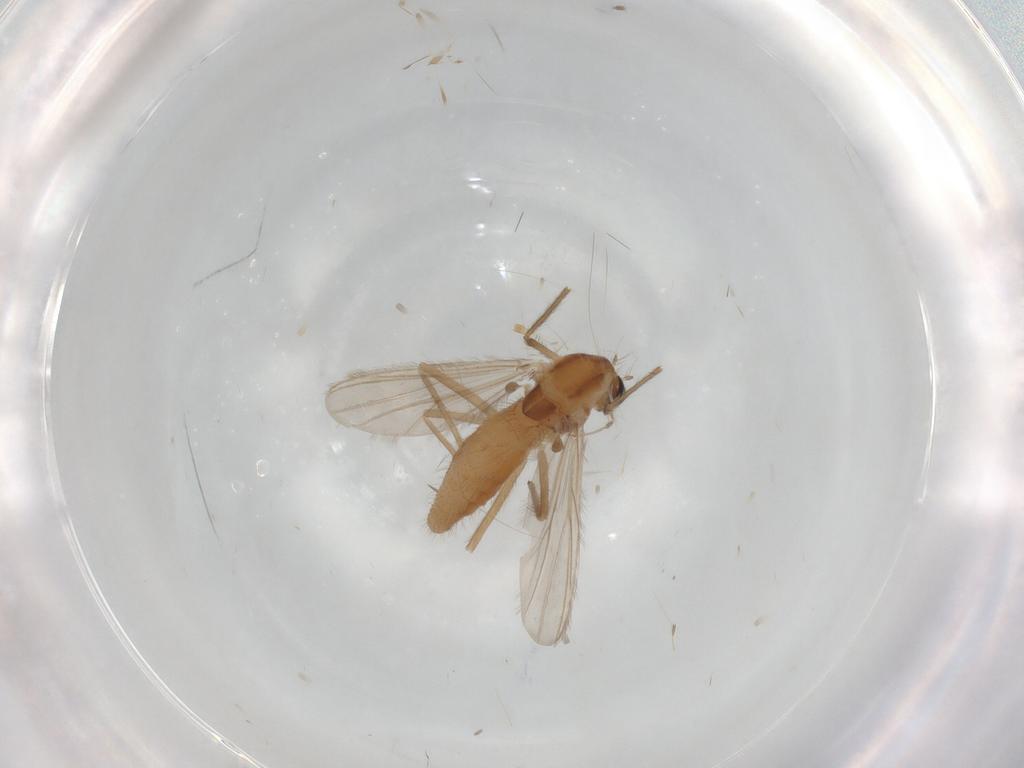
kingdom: Animalia
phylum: Arthropoda
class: Insecta
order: Diptera
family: Chironomidae
